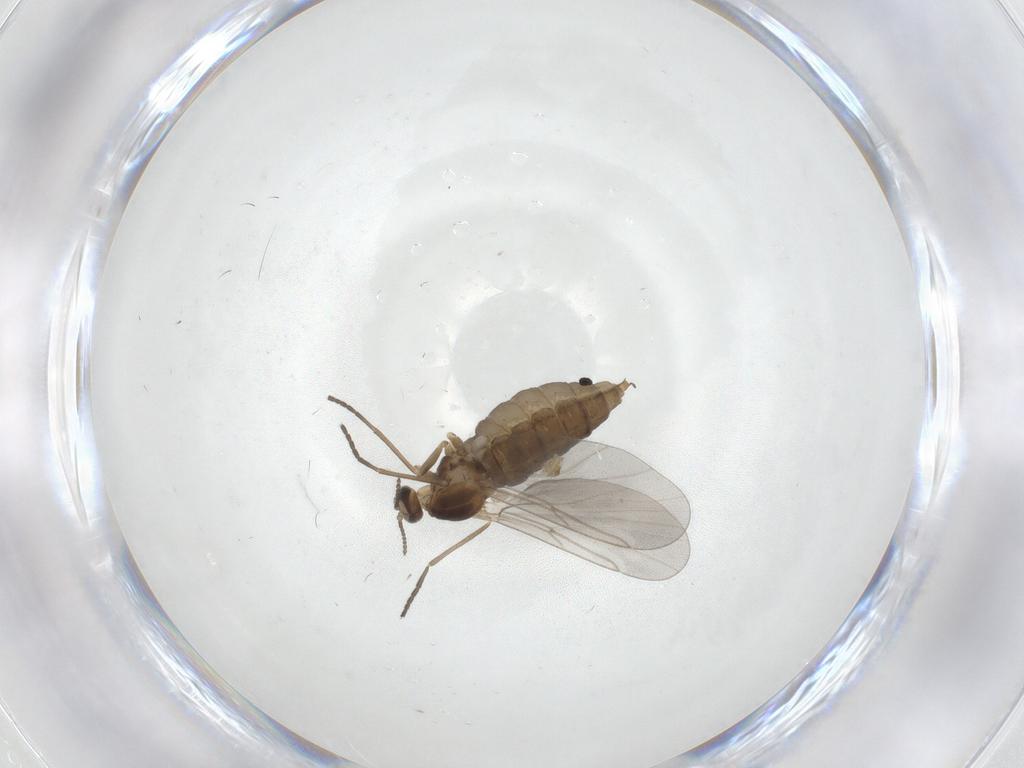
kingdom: Animalia
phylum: Arthropoda
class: Insecta
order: Diptera
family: Cecidomyiidae
